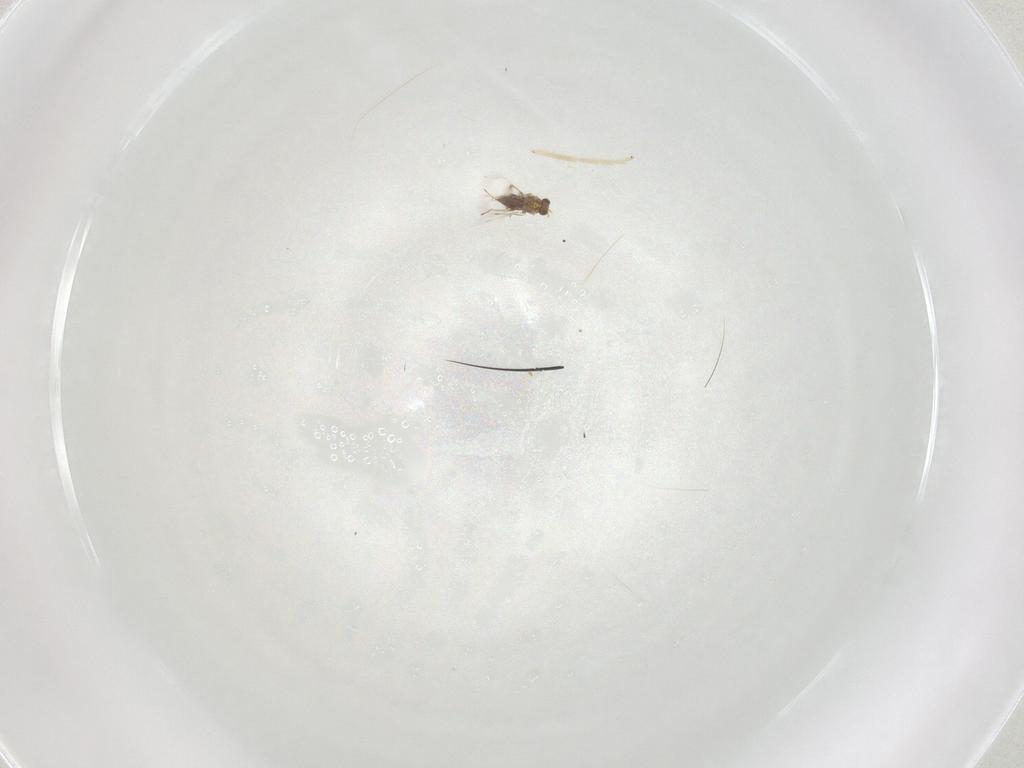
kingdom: Animalia
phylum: Arthropoda
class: Insecta
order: Hymenoptera
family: Trichogrammatidae
